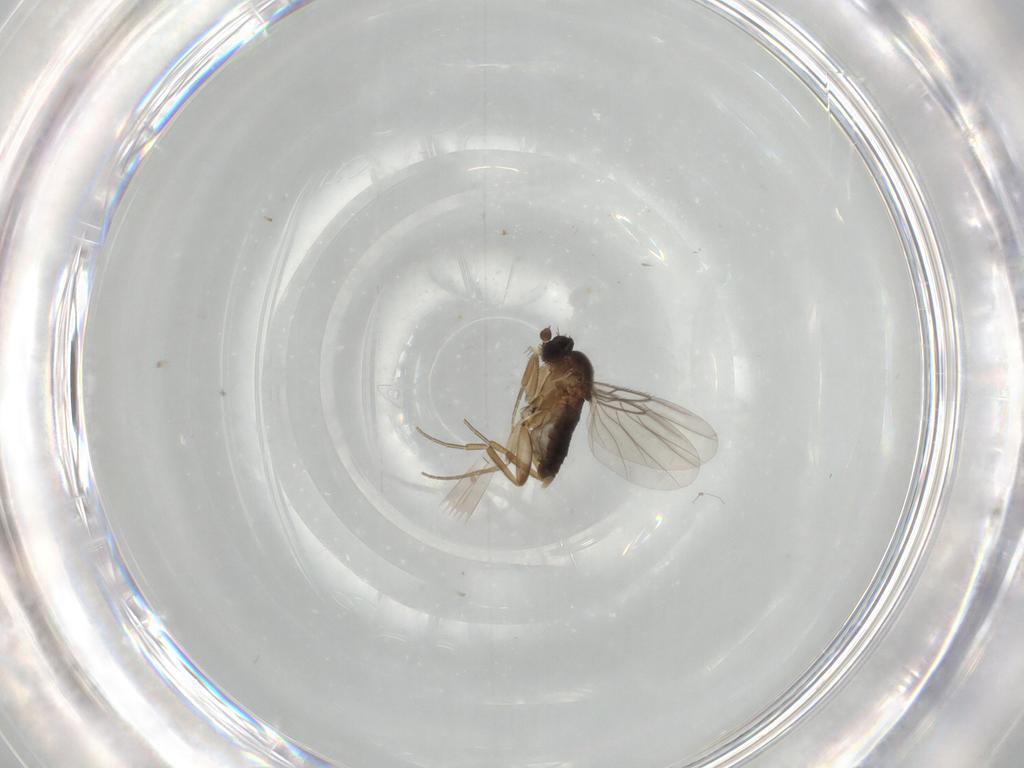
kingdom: Animalia
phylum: Arthropoda
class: Insecta
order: Diptera
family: Phoridae
